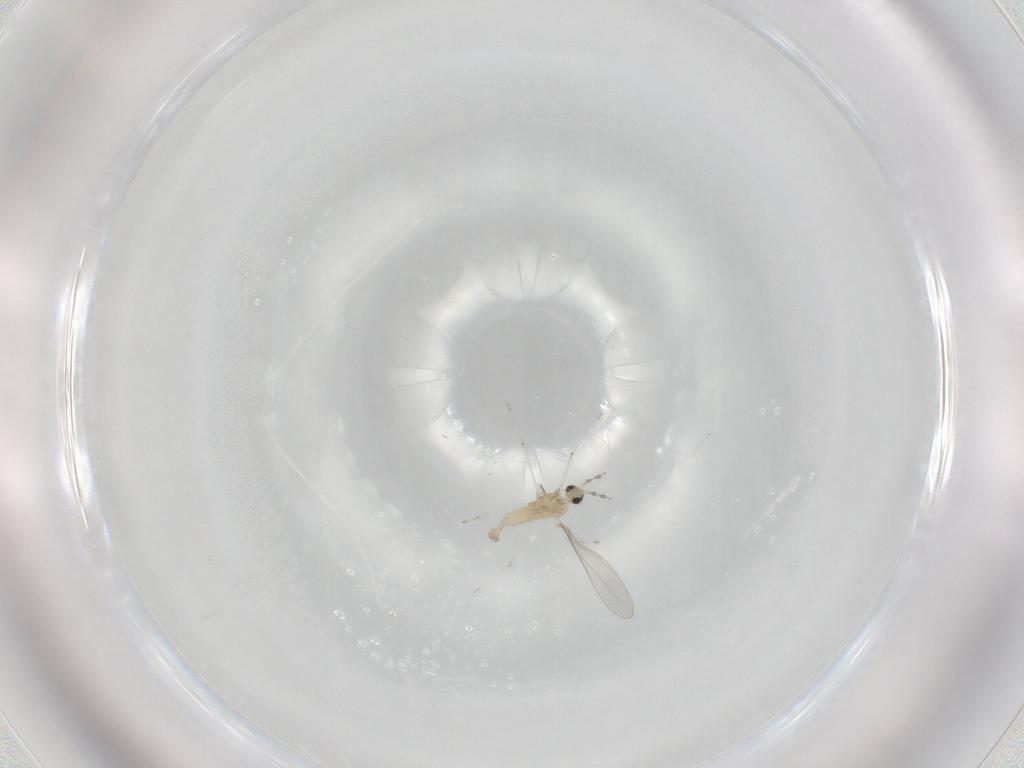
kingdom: Animalia
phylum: Arthropoda
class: Insecta
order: Diptera
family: Cecidomyiidae
